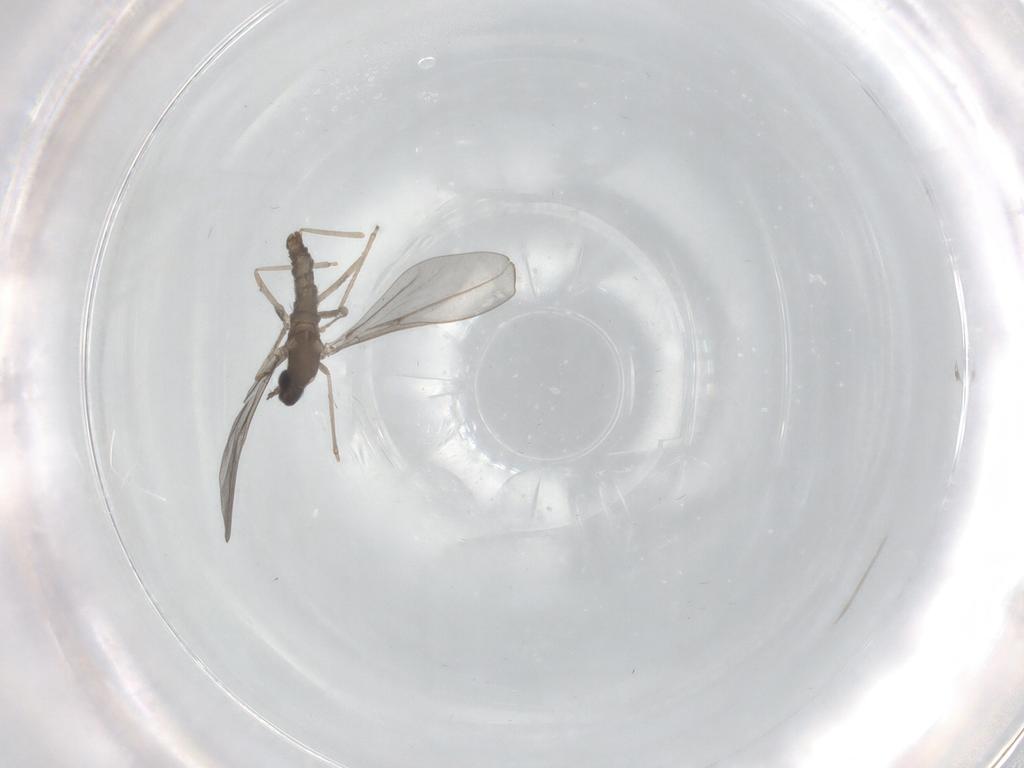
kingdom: Animalia
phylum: Arthropoda
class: Insecta
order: Diptera
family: Cecidomyiidae
